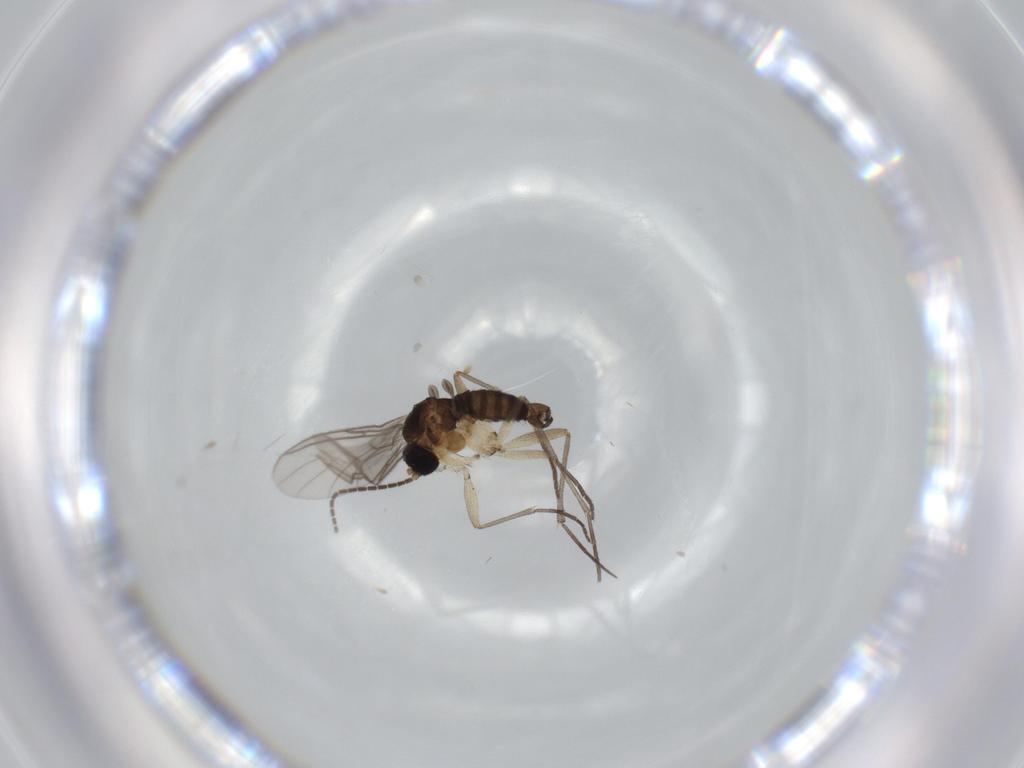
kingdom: Animalia
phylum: Arthropoda
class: Insecta
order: Diptera
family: Sciaridae
